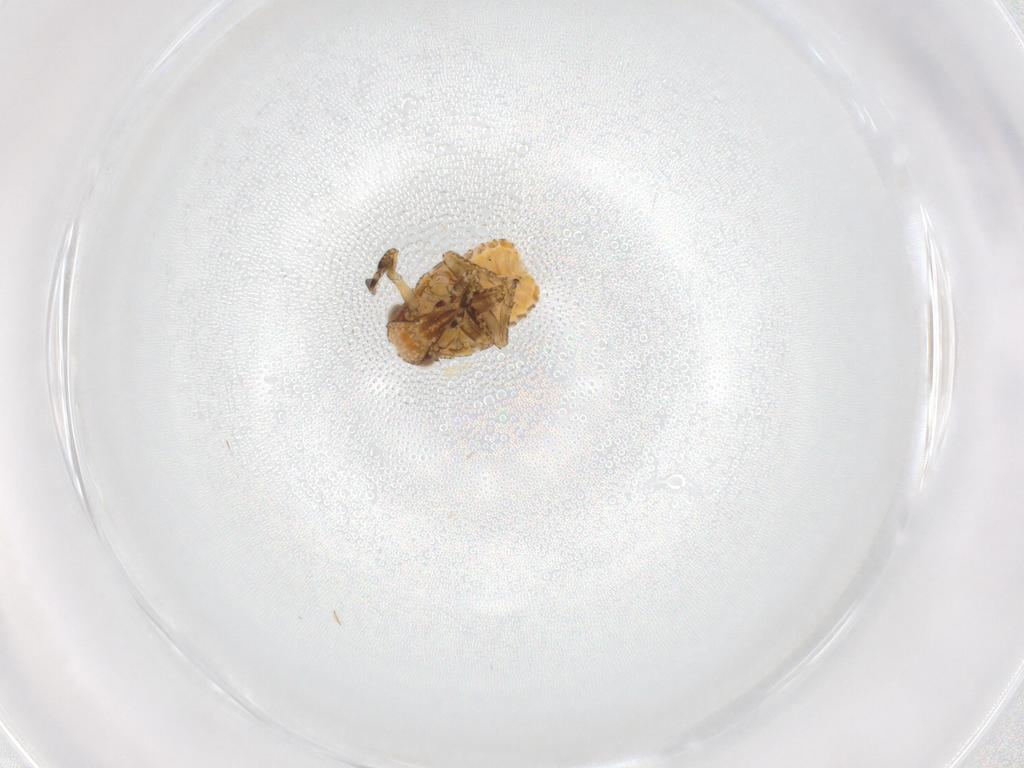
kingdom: Animalia
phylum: Arthropoda
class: Insecta
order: Hemiptera
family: Fulgoroidea_incertae_sedis
